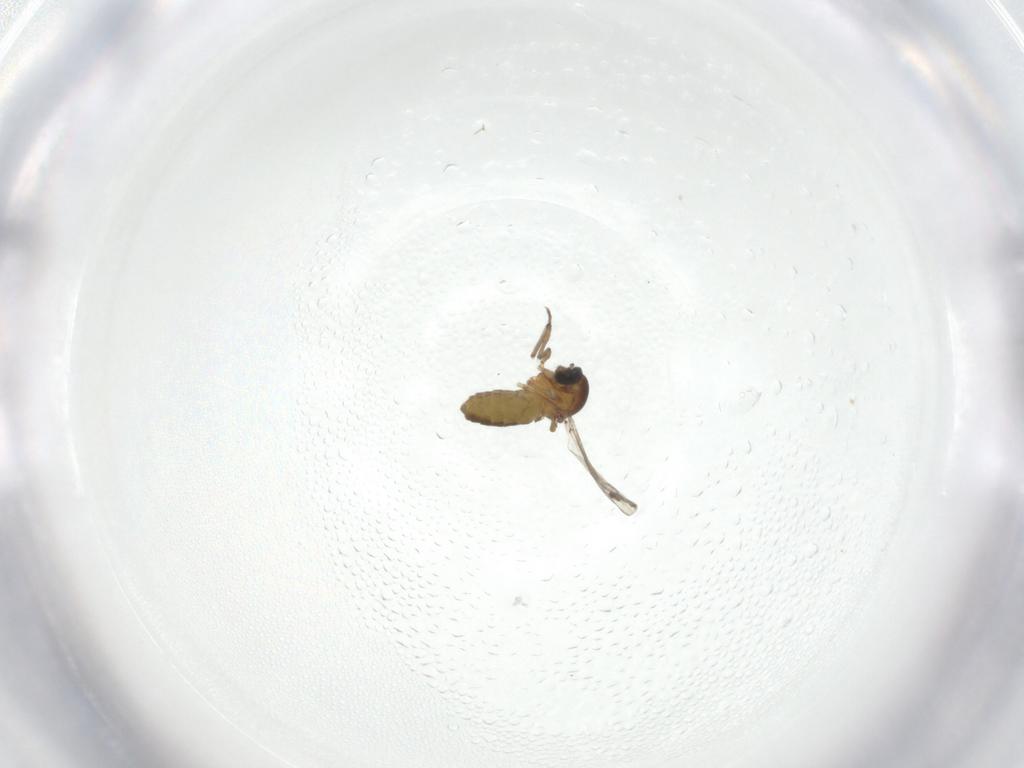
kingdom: Animalia
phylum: Arthropoda
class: Insecta
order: Diptera
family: Ceratopogonidae
